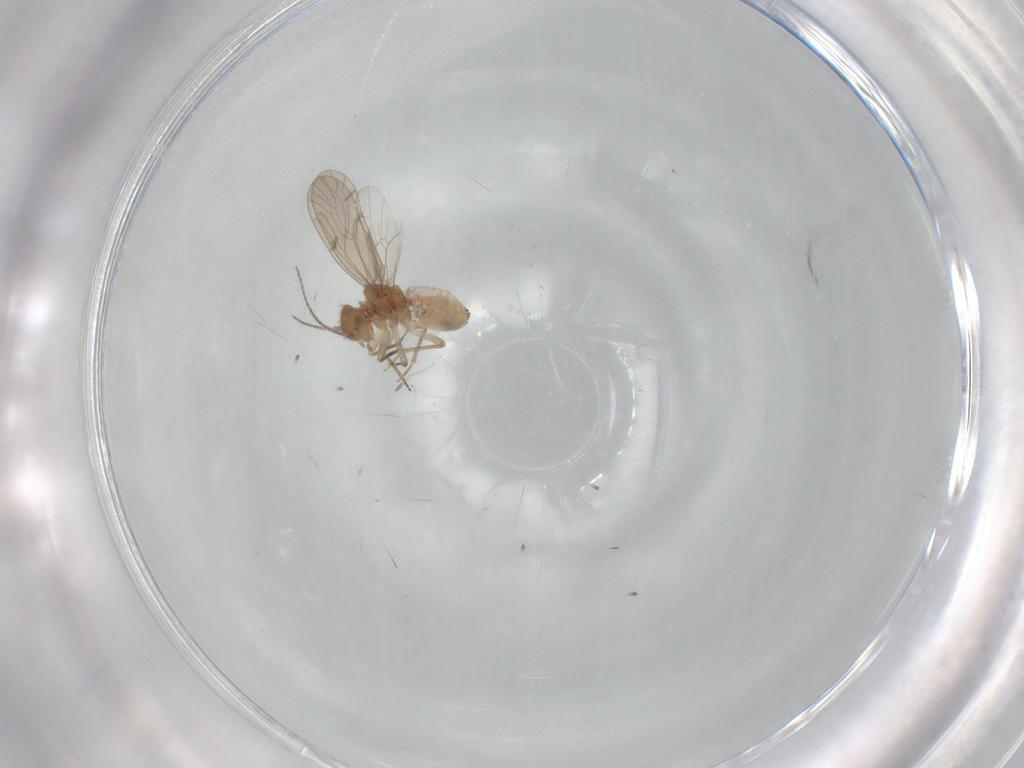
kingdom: Animalia
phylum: Arthropoda
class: Insecta
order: Psocodea
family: Ectopsocidae
